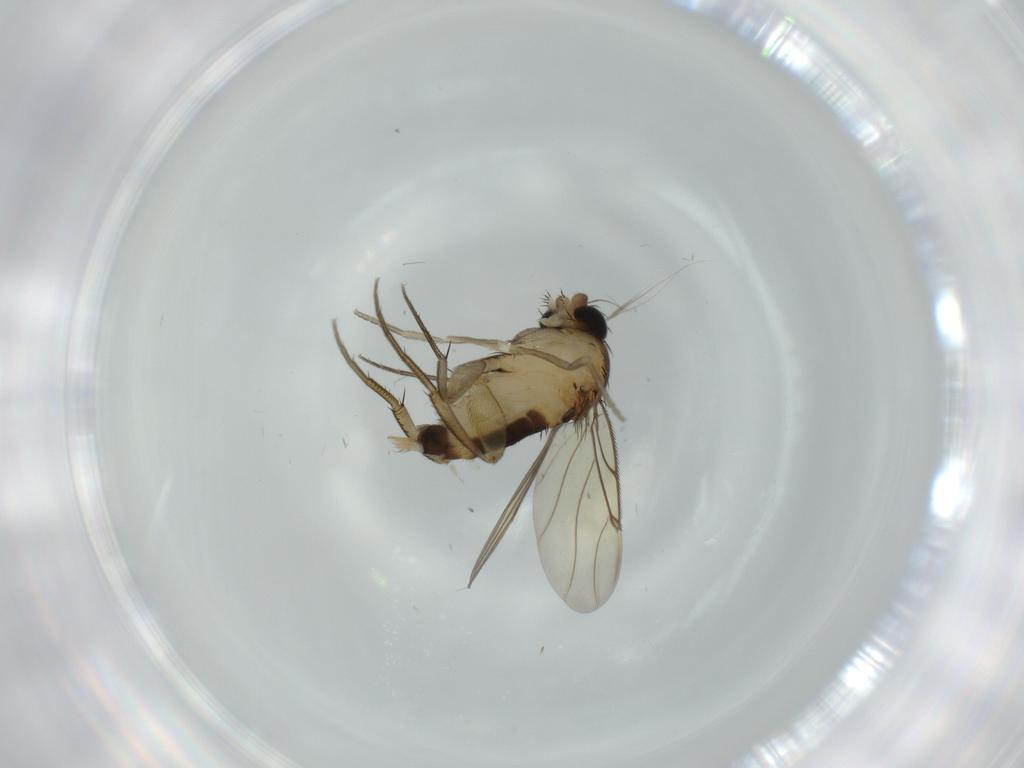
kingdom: Animalia
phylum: Arthropoda
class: Insecta
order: Diptera
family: Phoridae
